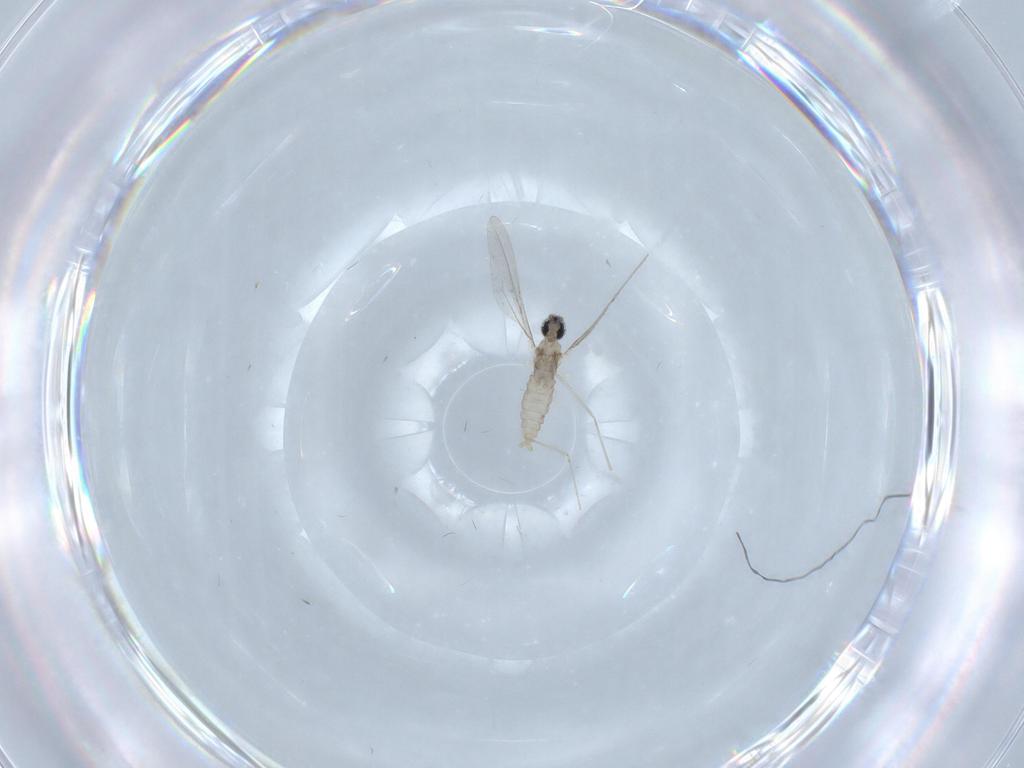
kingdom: Animalia
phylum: Arthropoda
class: Insecta
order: Diptera
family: Cecidomyiidae
